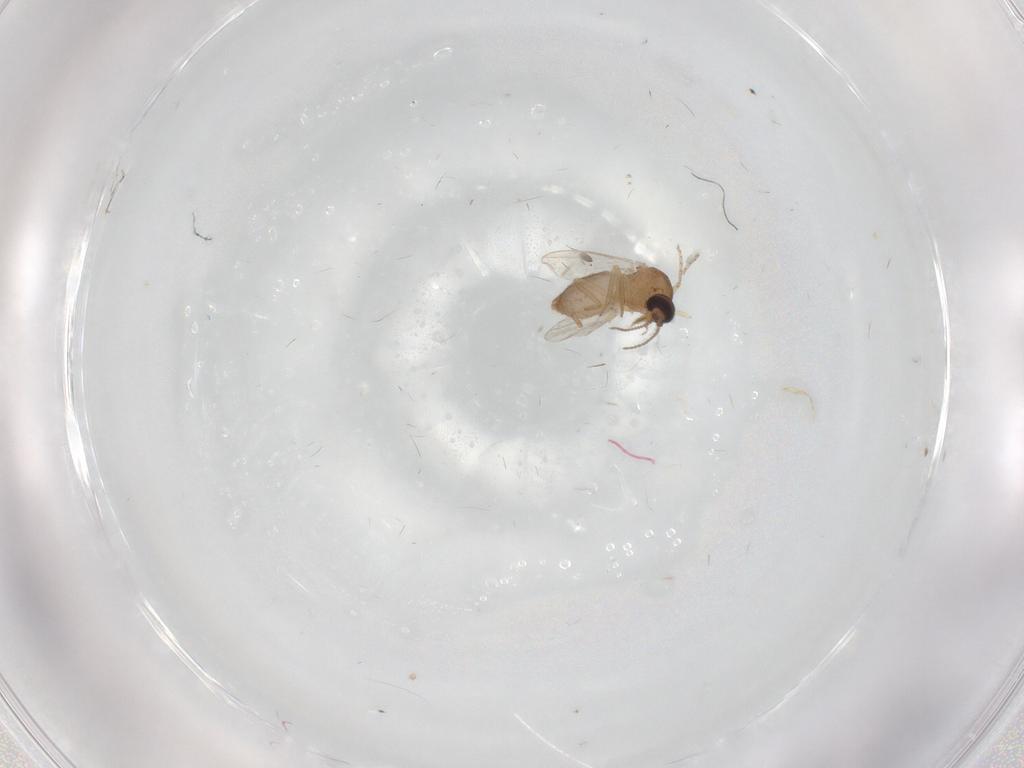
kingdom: Animalia
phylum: Arthropoda
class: Insecta
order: Diptera
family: Ceratopogonidae
